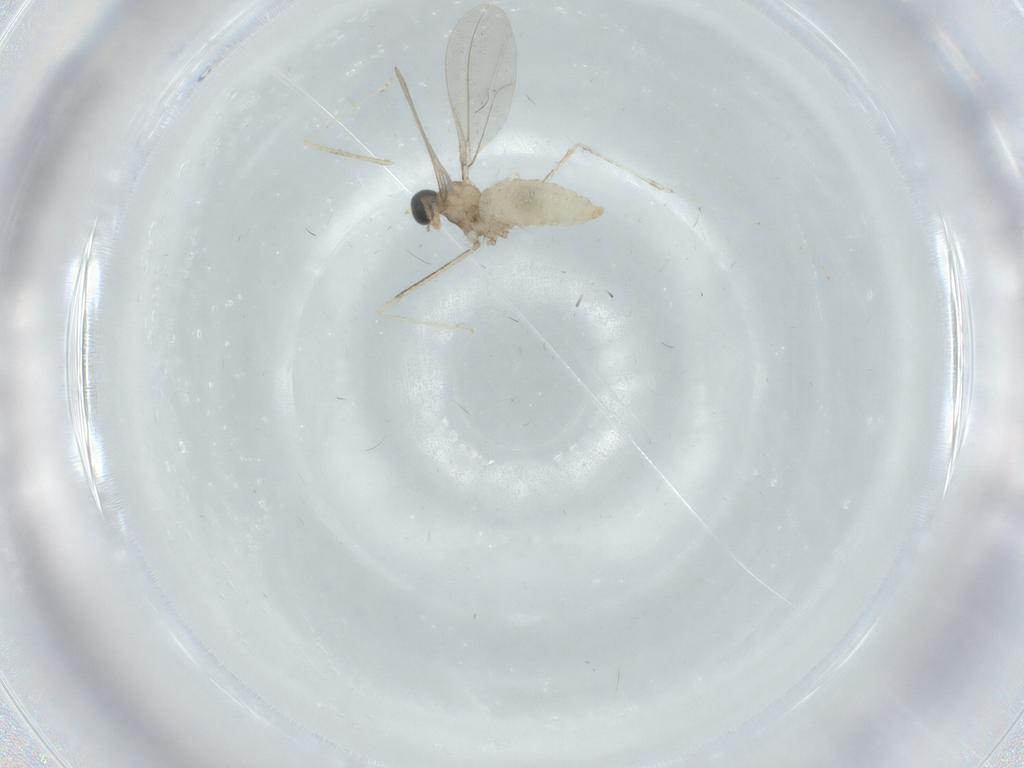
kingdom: Animalia
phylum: Arthropoda
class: Insecta
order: Diptera
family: Cecidomyiidae
